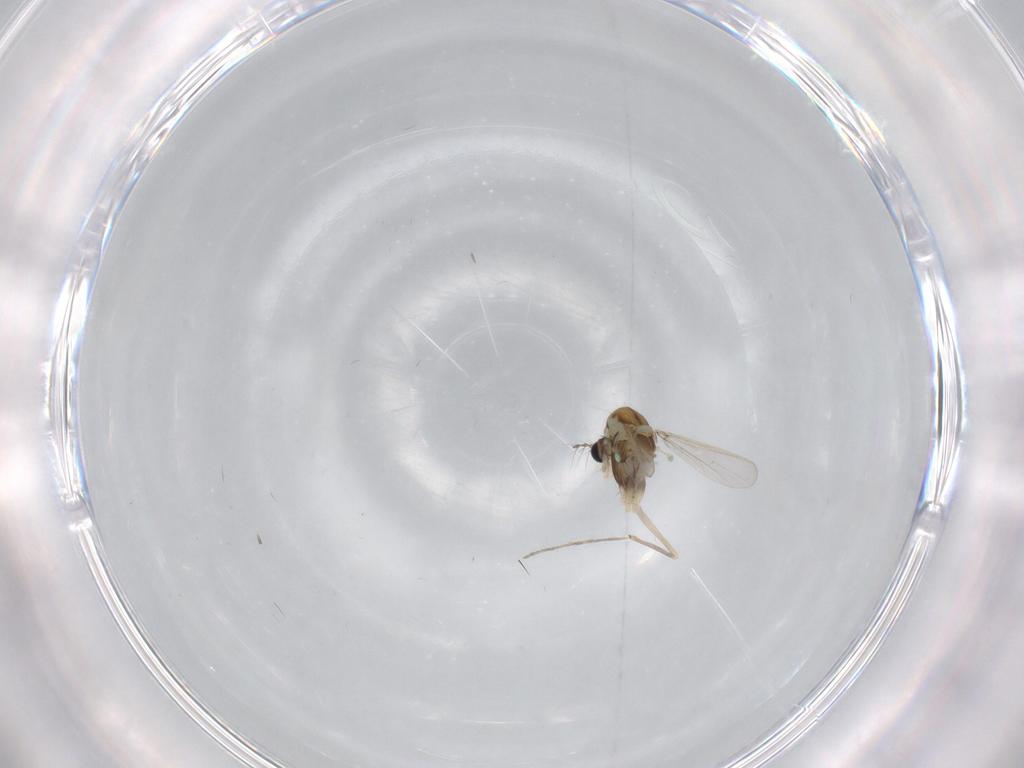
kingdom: Animalia
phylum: Arthropoda
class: Insecta
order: Diptera
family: Chironomidae
